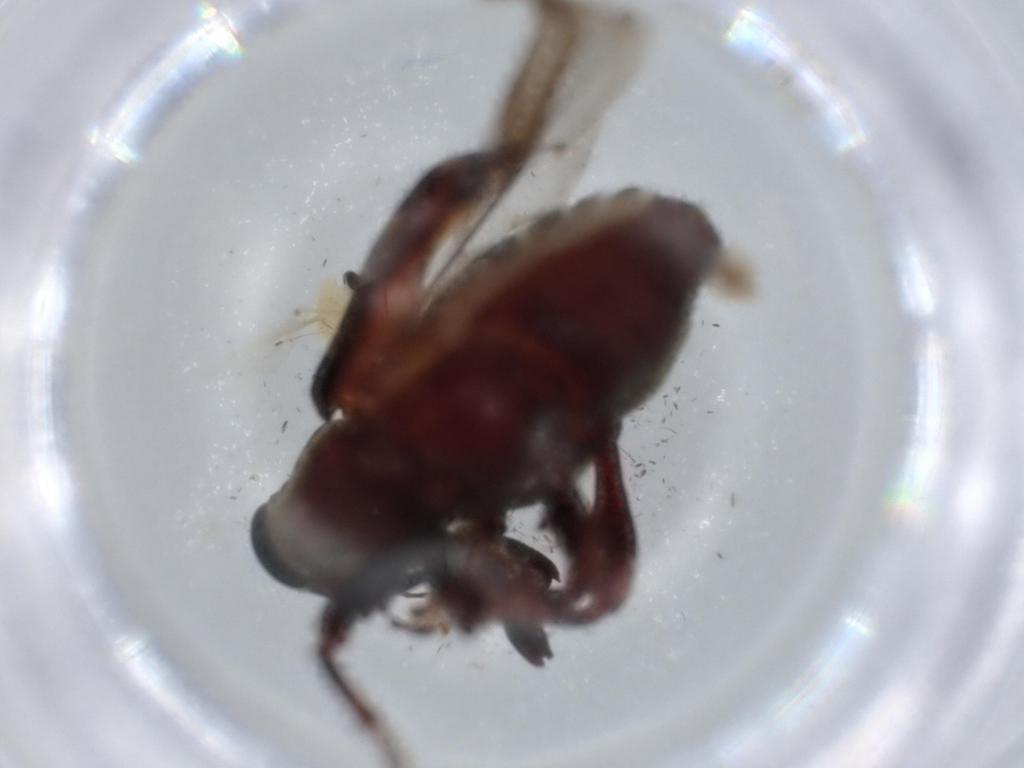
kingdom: Animalia
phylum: Arthropoda
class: Insecta
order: Coleoptera
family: Curculionidae
